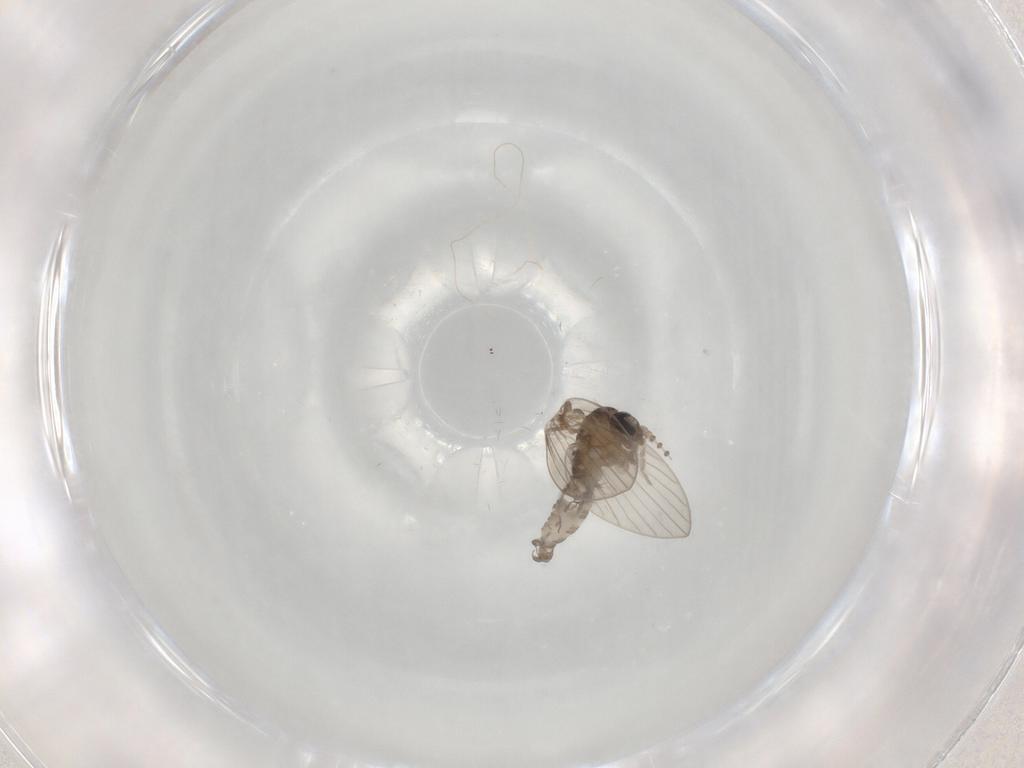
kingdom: Animalia
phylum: Arthropoda
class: Insecta
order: Diptera
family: Psychodidae
